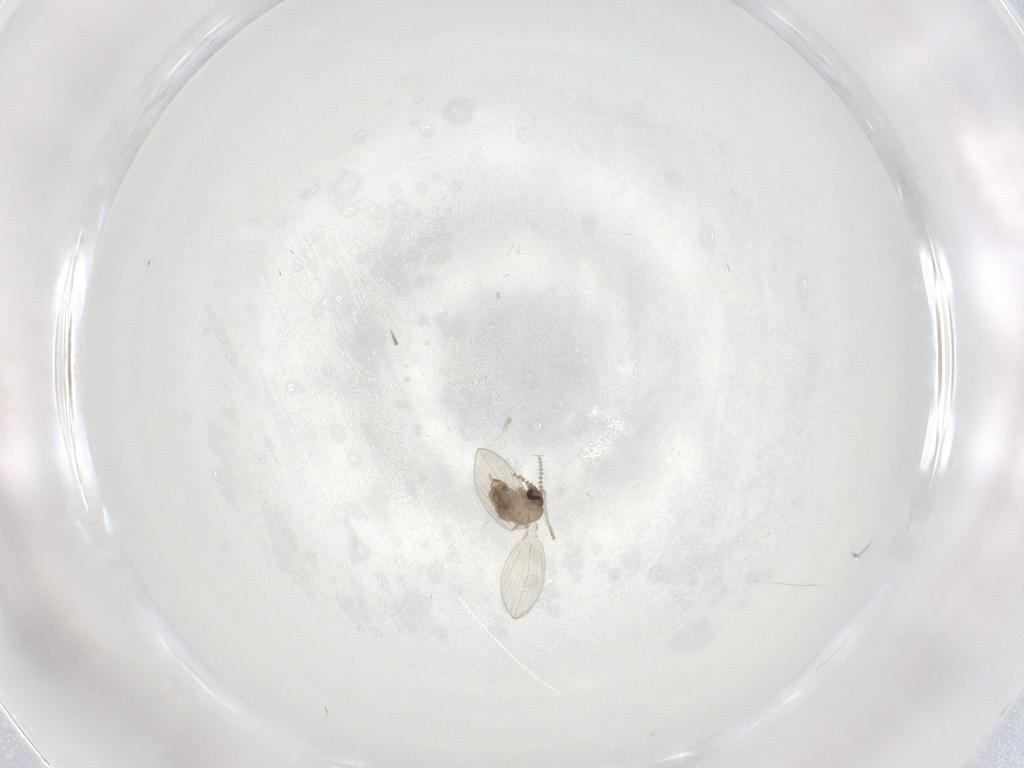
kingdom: Animalia
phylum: Arthropoda
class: Insecta
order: Diptera
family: Psychodidae
